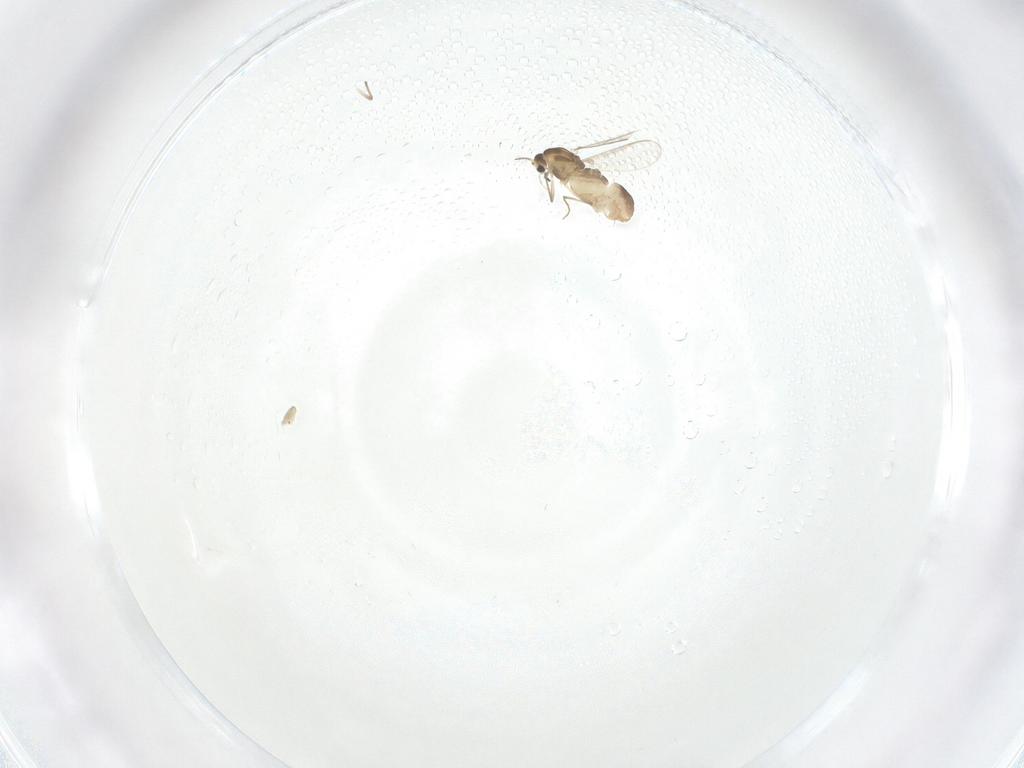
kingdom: Animalia
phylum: Arthropoda
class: Insecta
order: Diptera
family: Chironomidae
